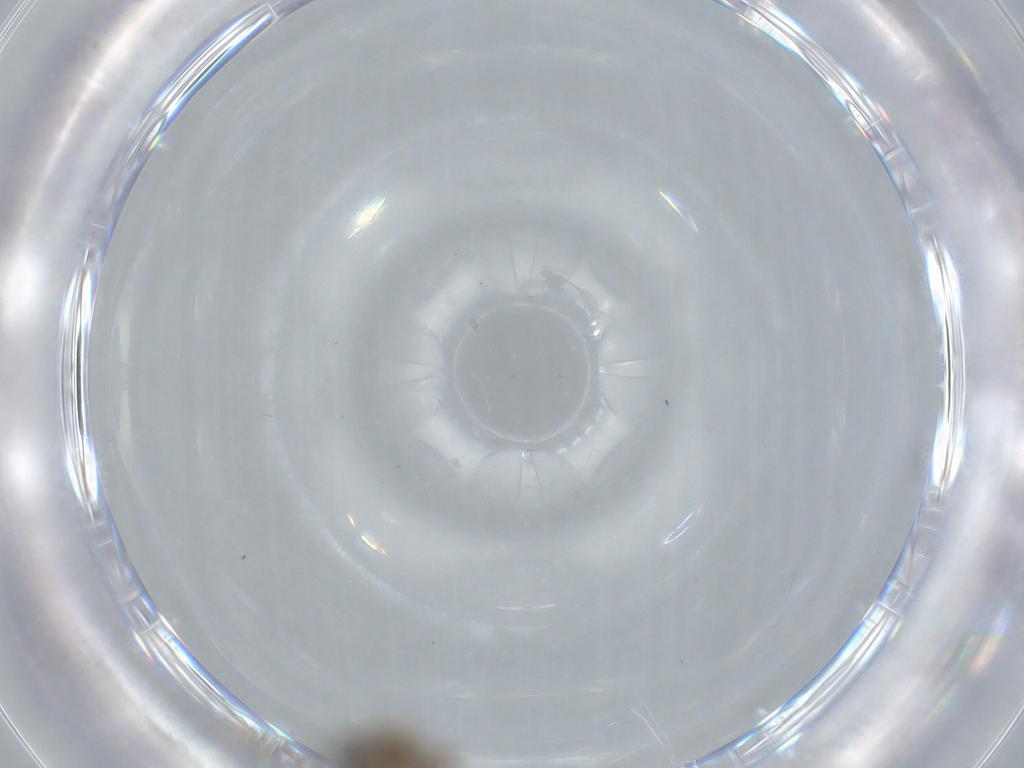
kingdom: Animalia
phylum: Arthropoda
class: Insecta
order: Diptera
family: Cecidomyiidae
